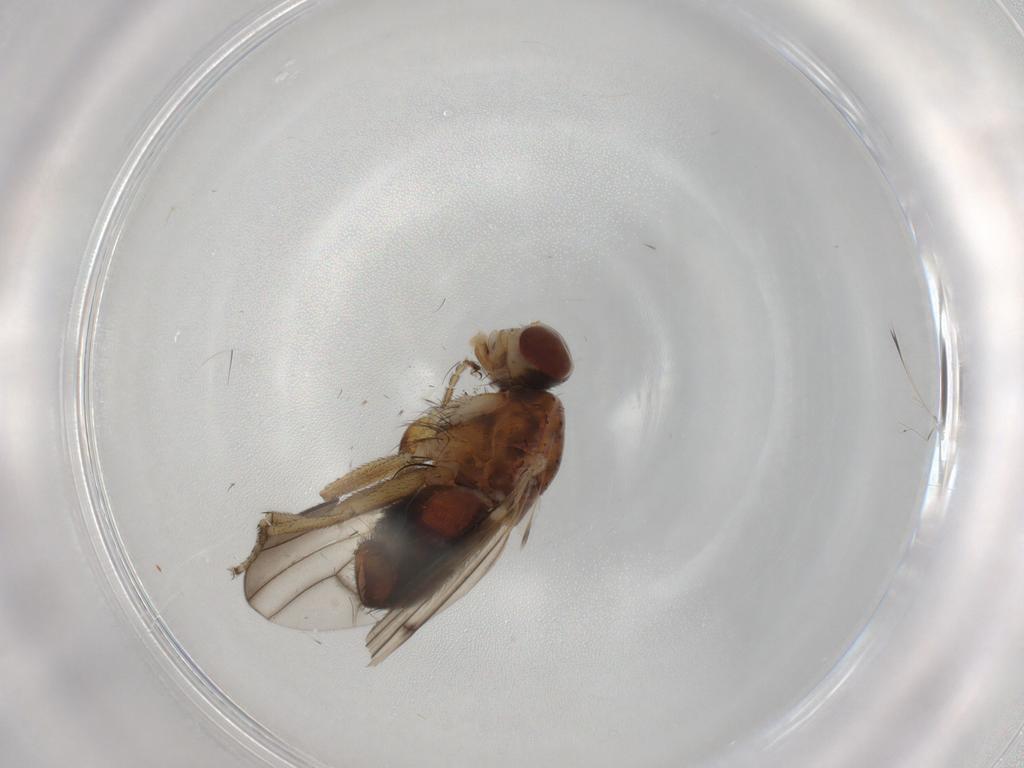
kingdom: Animalia
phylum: Arthropoda
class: Insecta
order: Diptera
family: Heleomyzidae
